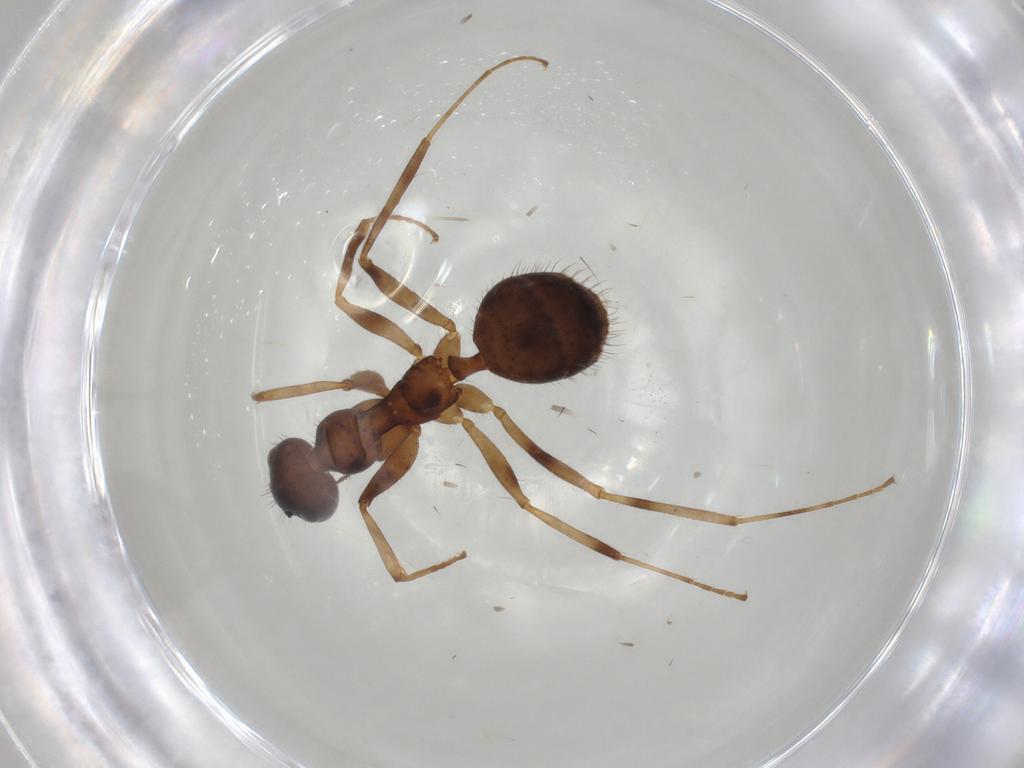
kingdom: Animalia
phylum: Arthropoda
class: Insecta
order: Hymenoptera
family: Formicidae
